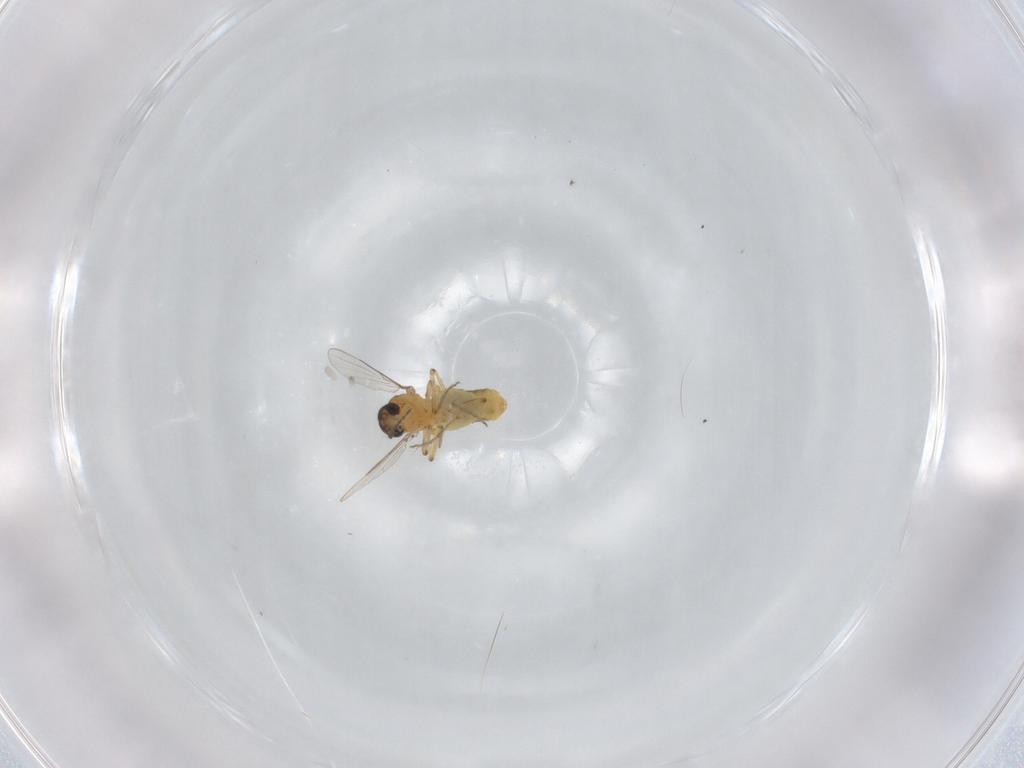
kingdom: Animalia
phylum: Arthropoda
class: Insecta
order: Diptera
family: Ceratopogonidae
